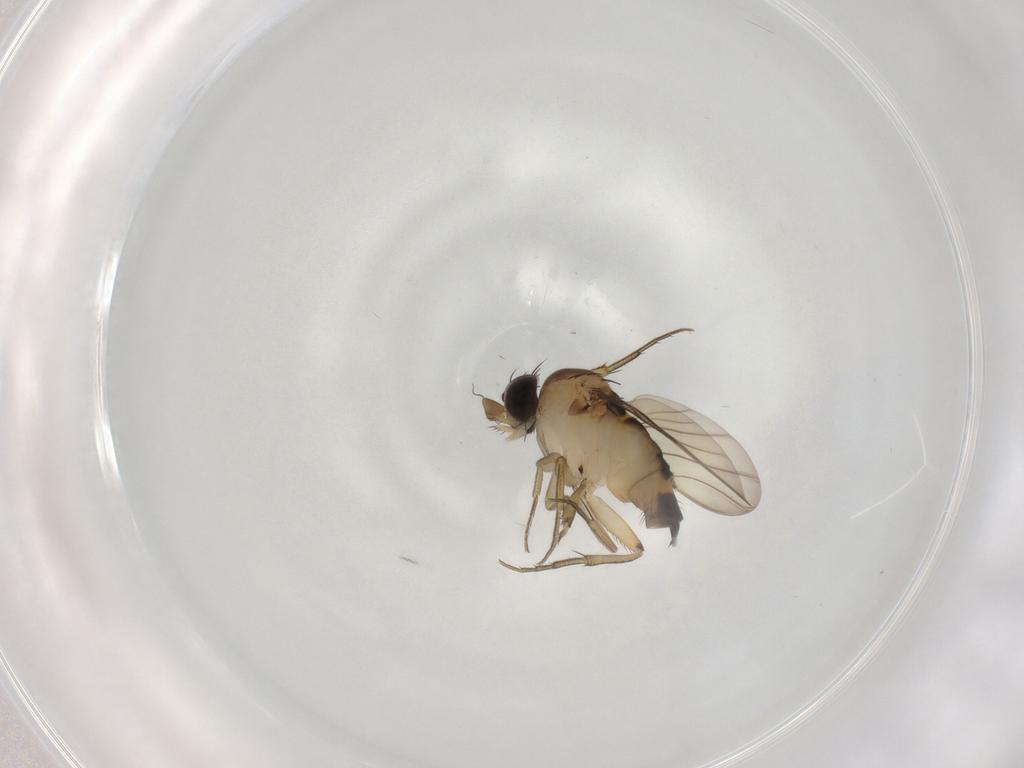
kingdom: Animalia
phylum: Arthropoda
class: Insecta
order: Diptera
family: Phoridae
